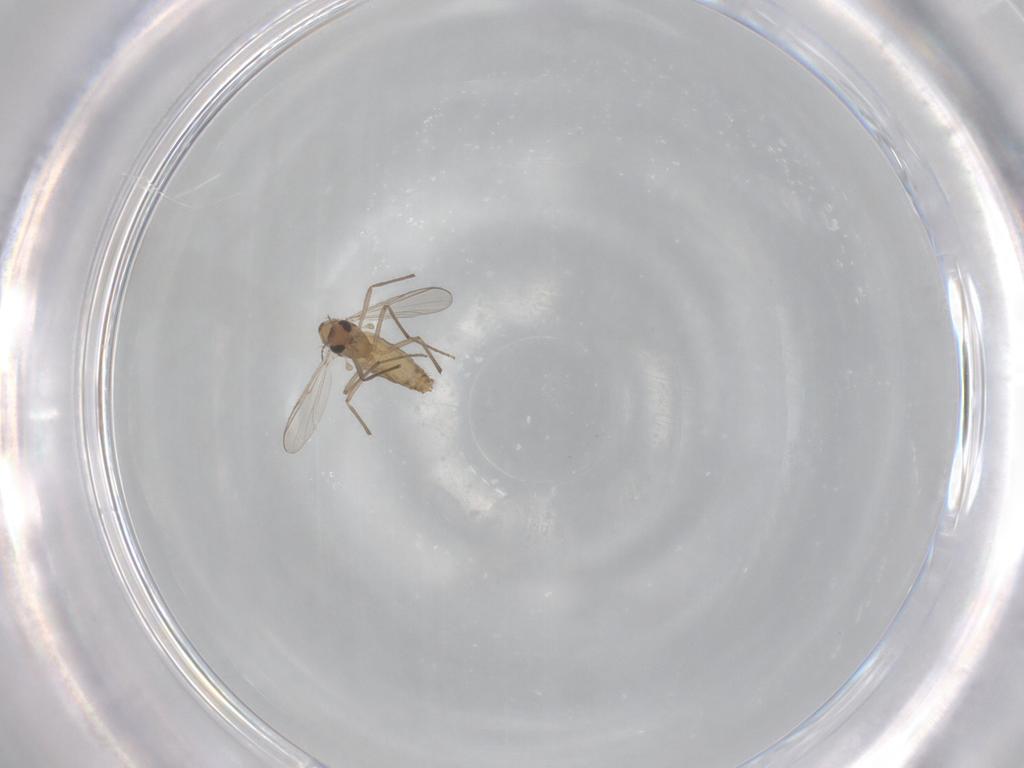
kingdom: Animalia
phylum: Arthropoda
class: Insecta
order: Diptera
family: Chironomidae
